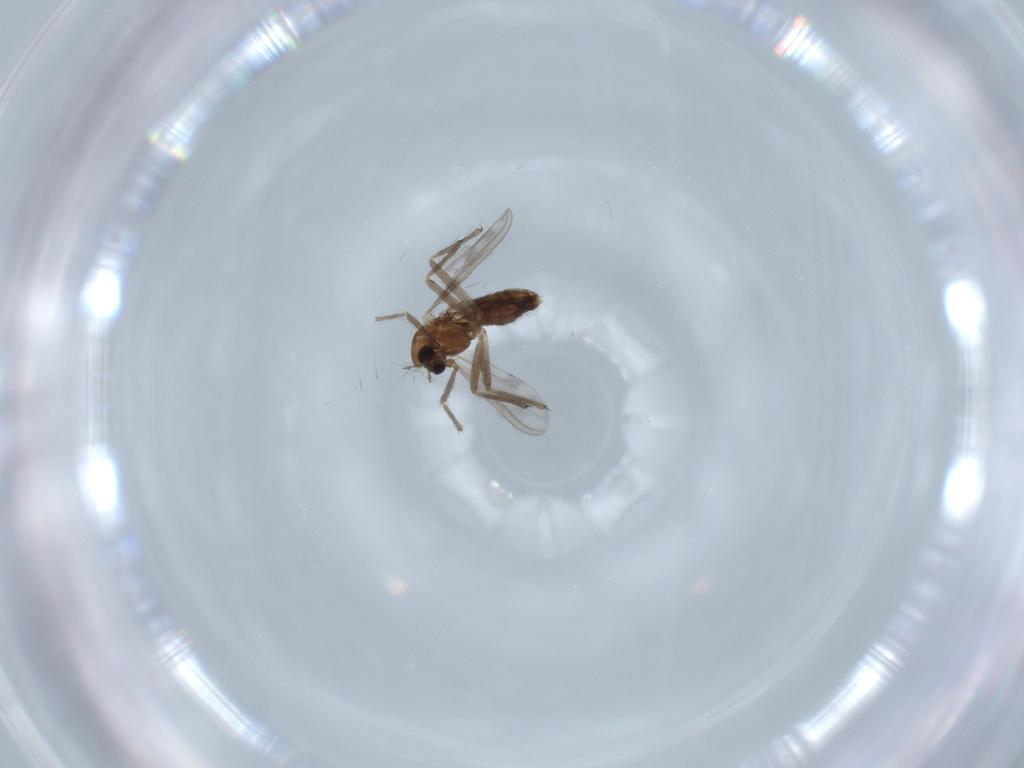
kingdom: Animalia
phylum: Arthropoda
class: Insecta
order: Diptera
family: Chironomidae
